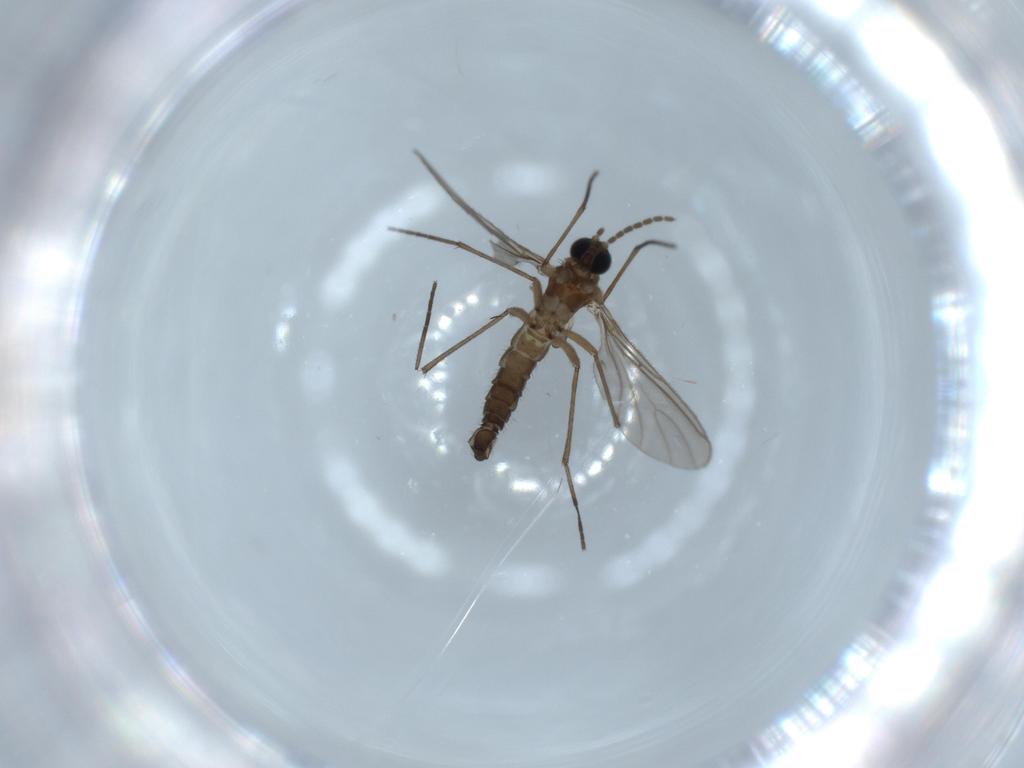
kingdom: Animalia
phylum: Arthropoda
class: Insecta
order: Diptera
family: Sciaridae
